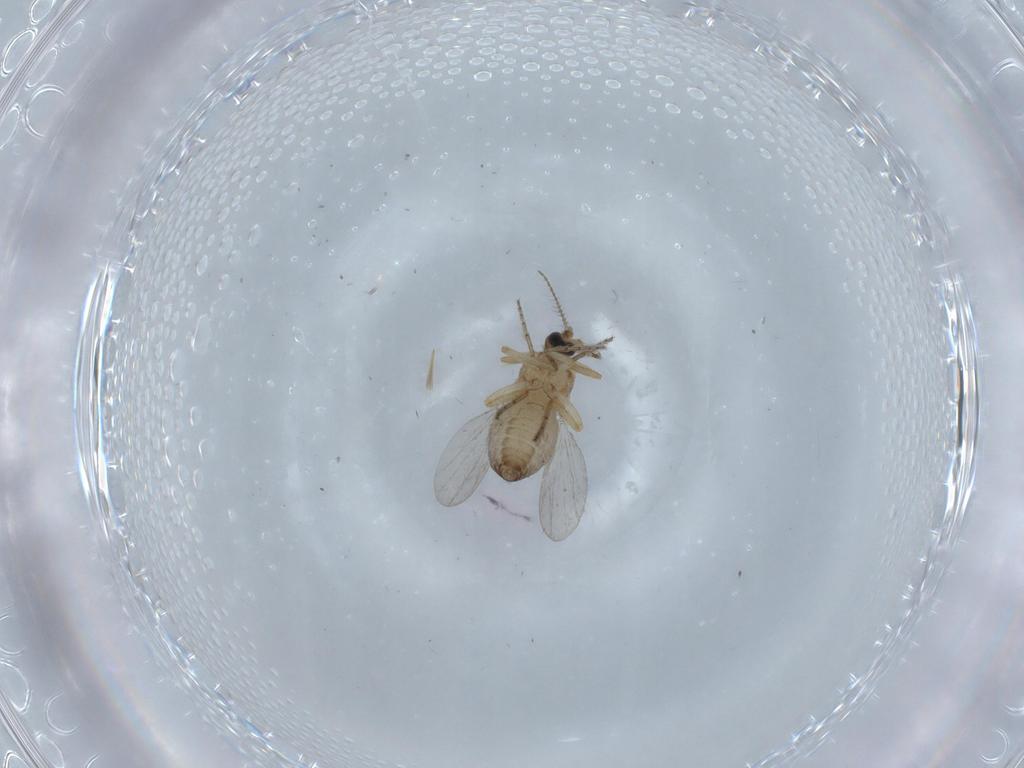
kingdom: Animalia
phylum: Arthropoda
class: Insecta
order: Diptera
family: Ceratopogonidae
